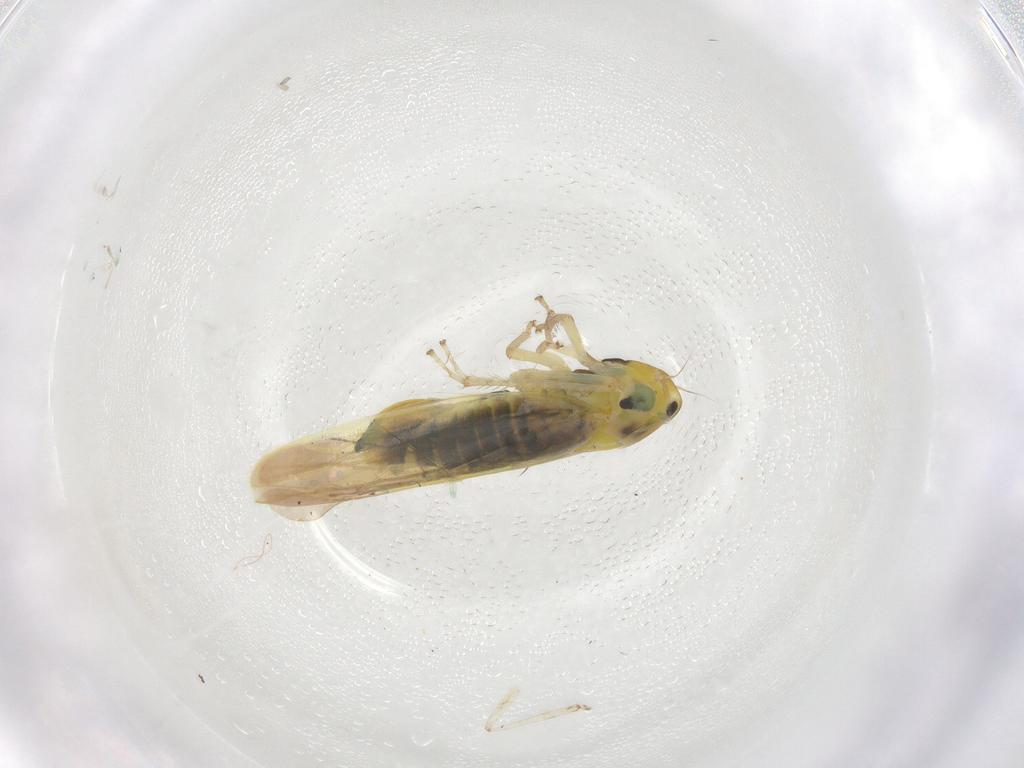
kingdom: Animalia
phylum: Arthropoda
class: Insecta
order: Hemiptera
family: Cicadellidae
